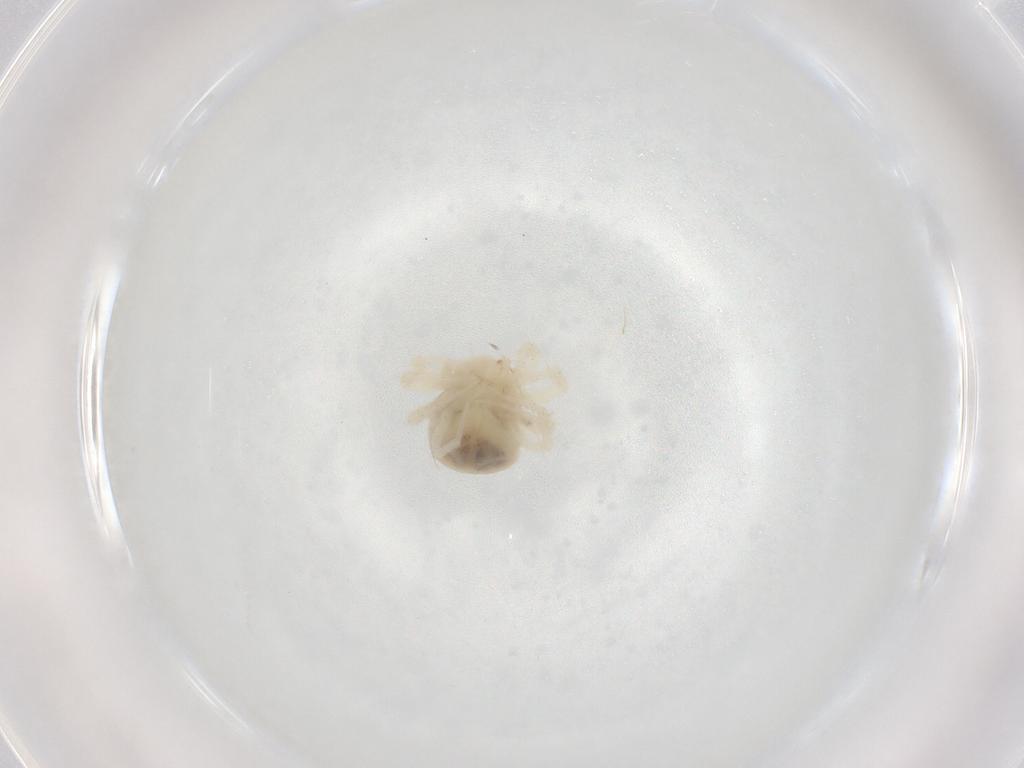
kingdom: Animalia
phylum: Arthropoda
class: Arachnida
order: Trombidiformes
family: Anystidae
